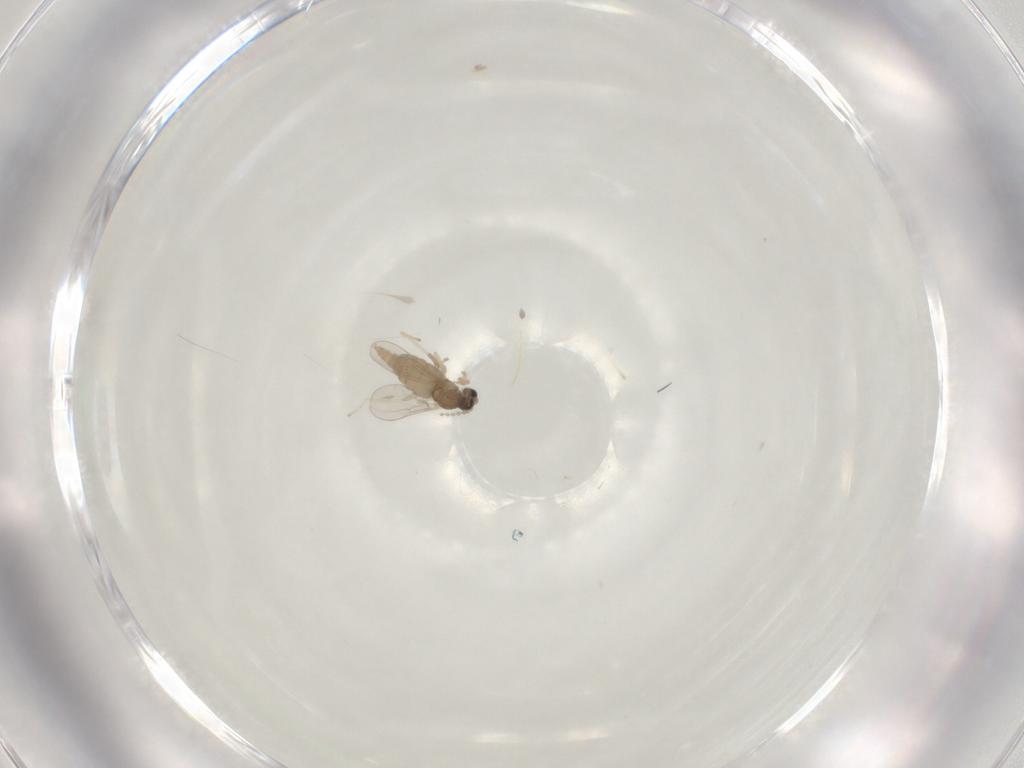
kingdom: Animalia
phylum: Arthropoda
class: Insecta
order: Diptera
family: Cecidomyiidae
